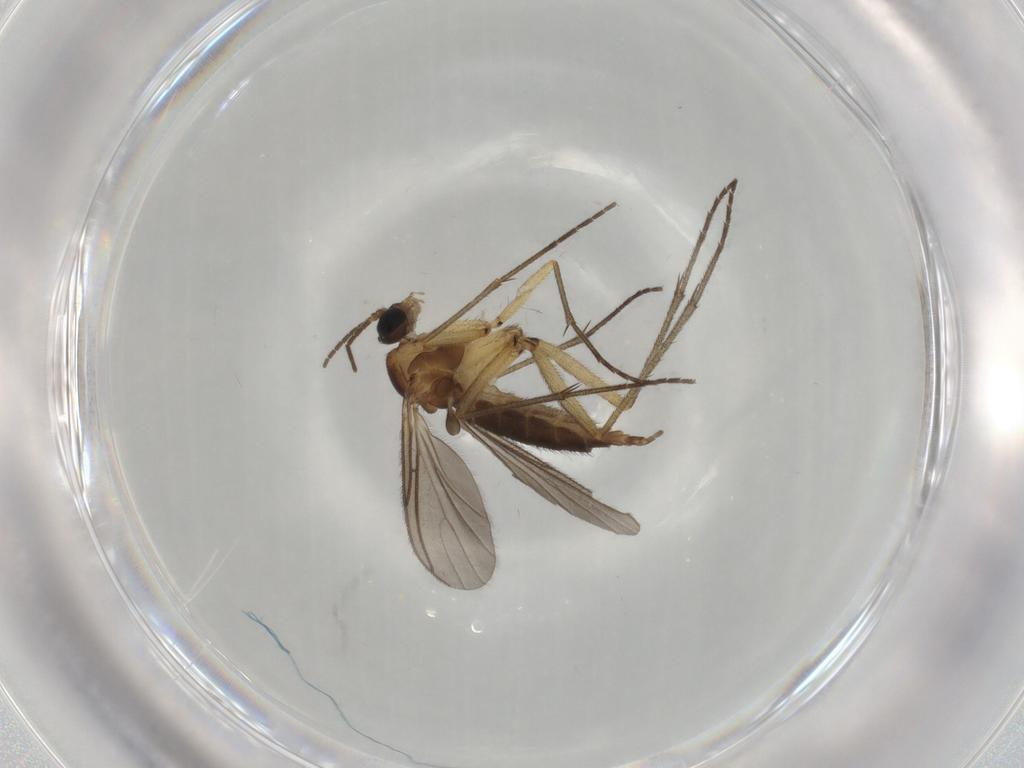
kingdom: Animalia
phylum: Arthropoda
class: Insecta
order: Diptera
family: Sciaridae
